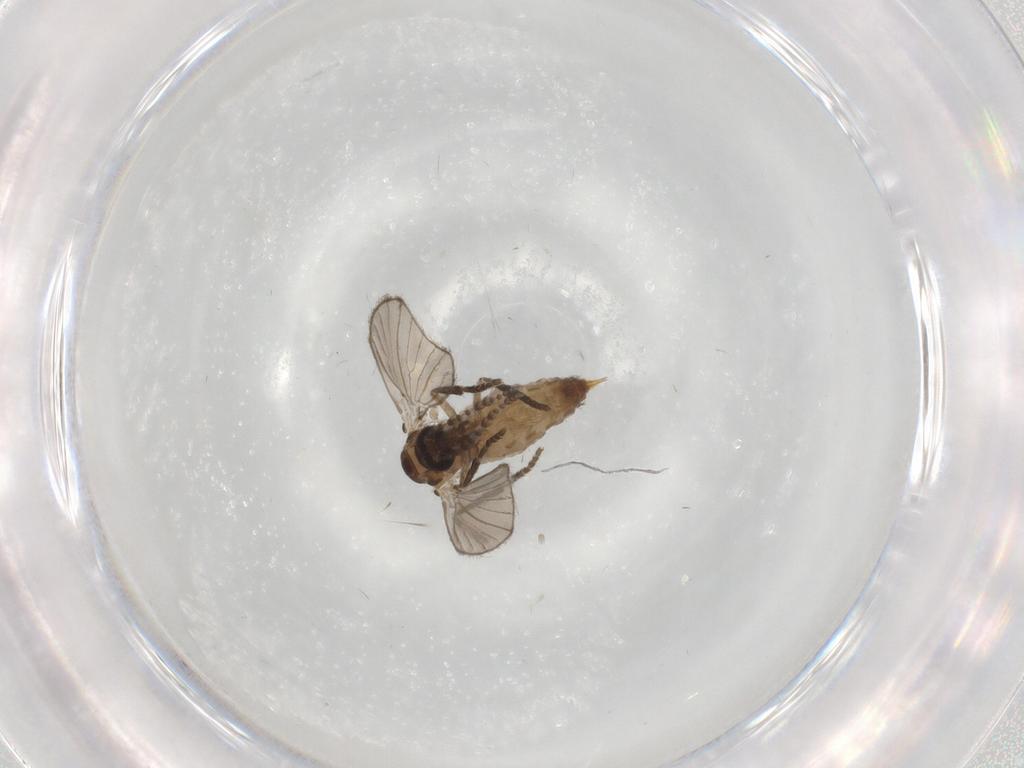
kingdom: Animalia
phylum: Arthropoda
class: Insecta
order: Diptera
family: Psychodidae
